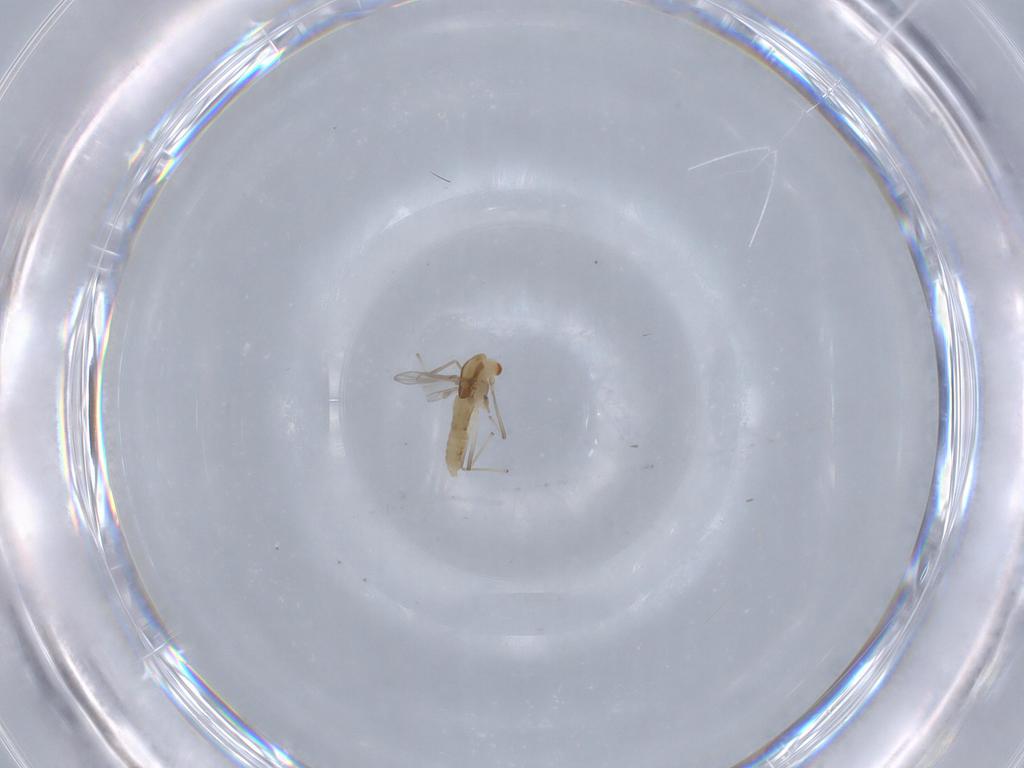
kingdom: Animalia
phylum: Arthropoda
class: Insecta
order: Diptera
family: Chironomidae
